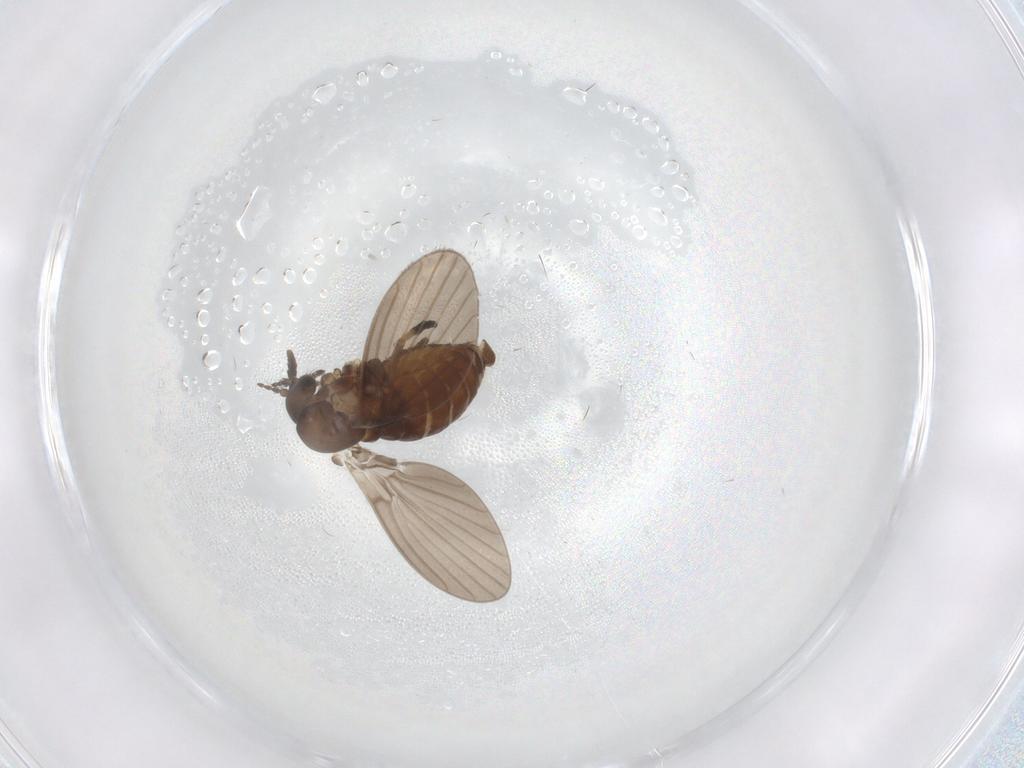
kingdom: Animalia
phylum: Arthropoda
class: Insecta
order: Diptera
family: Psychodidae
